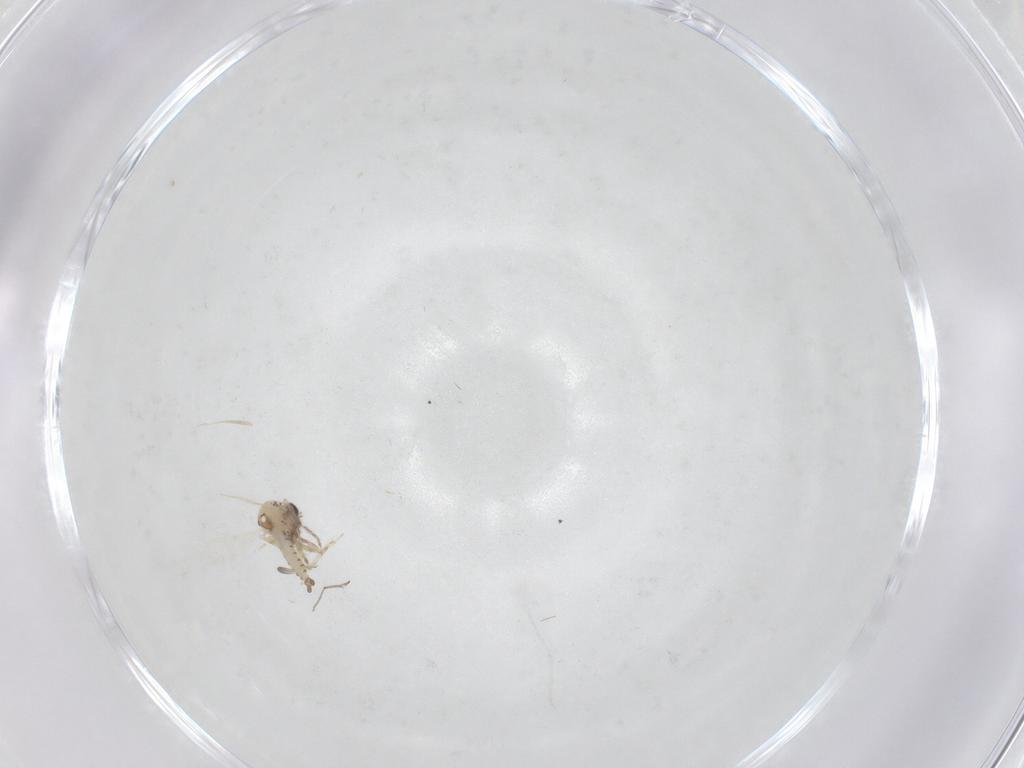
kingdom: Animalia
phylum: Arthropoda
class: Insecta
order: Diptera
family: Ceratopogonidae
